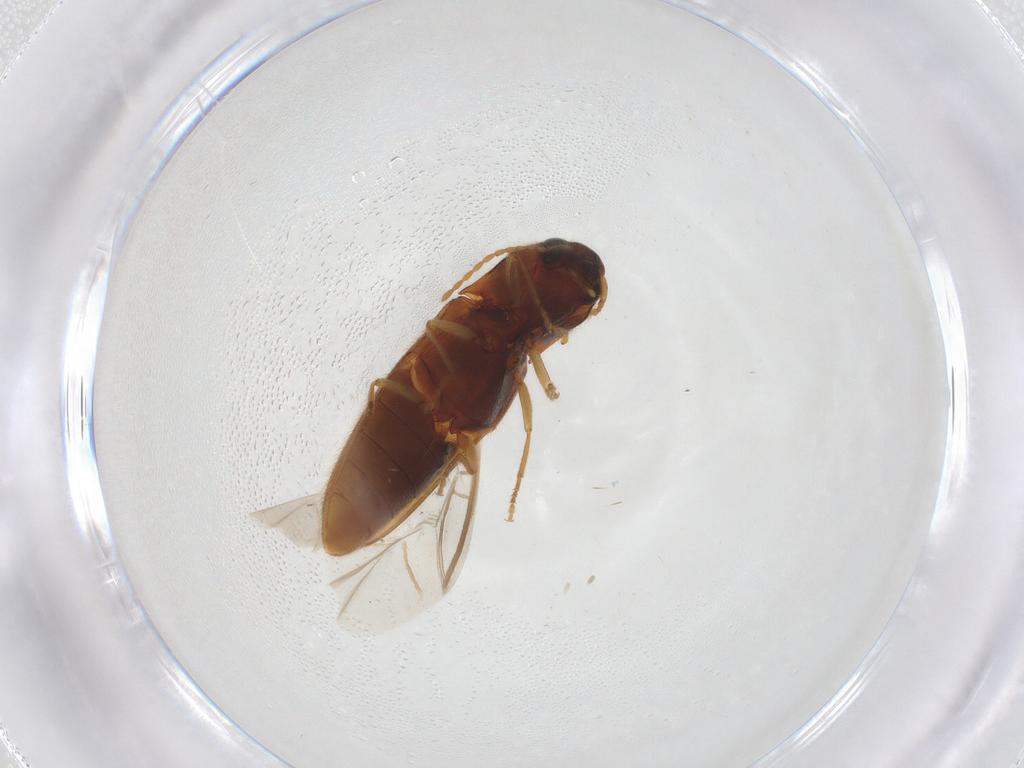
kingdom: Animalia
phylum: Arthropoda
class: Insecta
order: Coleoptera
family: Elateridae
